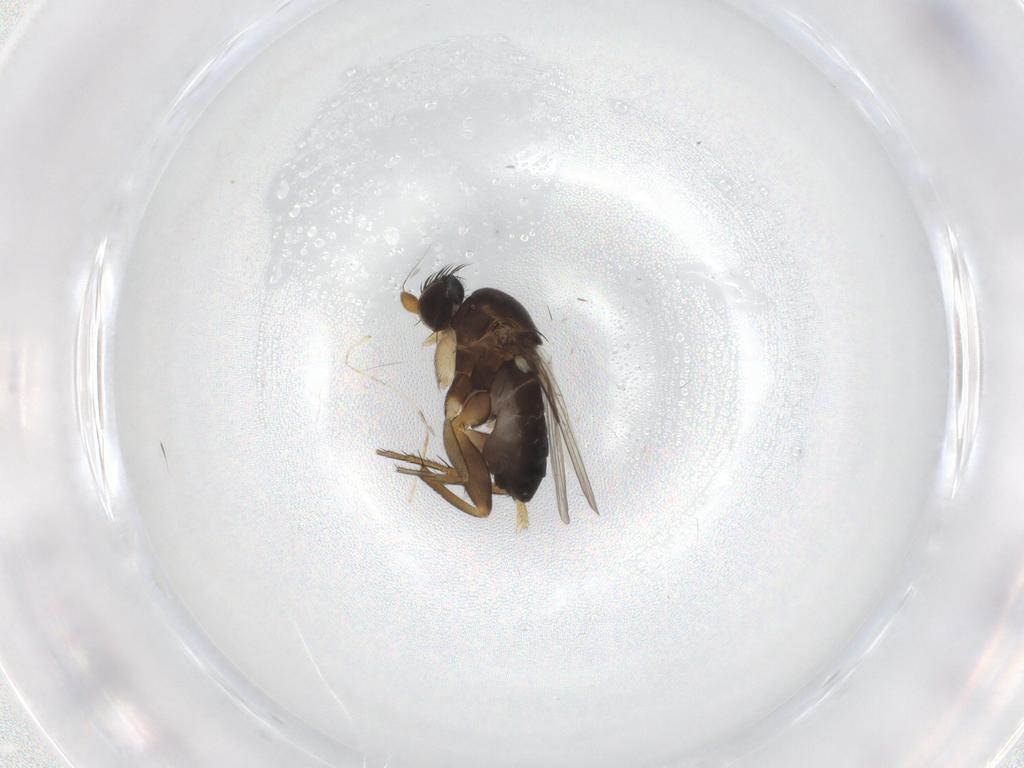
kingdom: Animalia
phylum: Arthropoda
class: Insecta
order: Diptera
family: Phoridae
